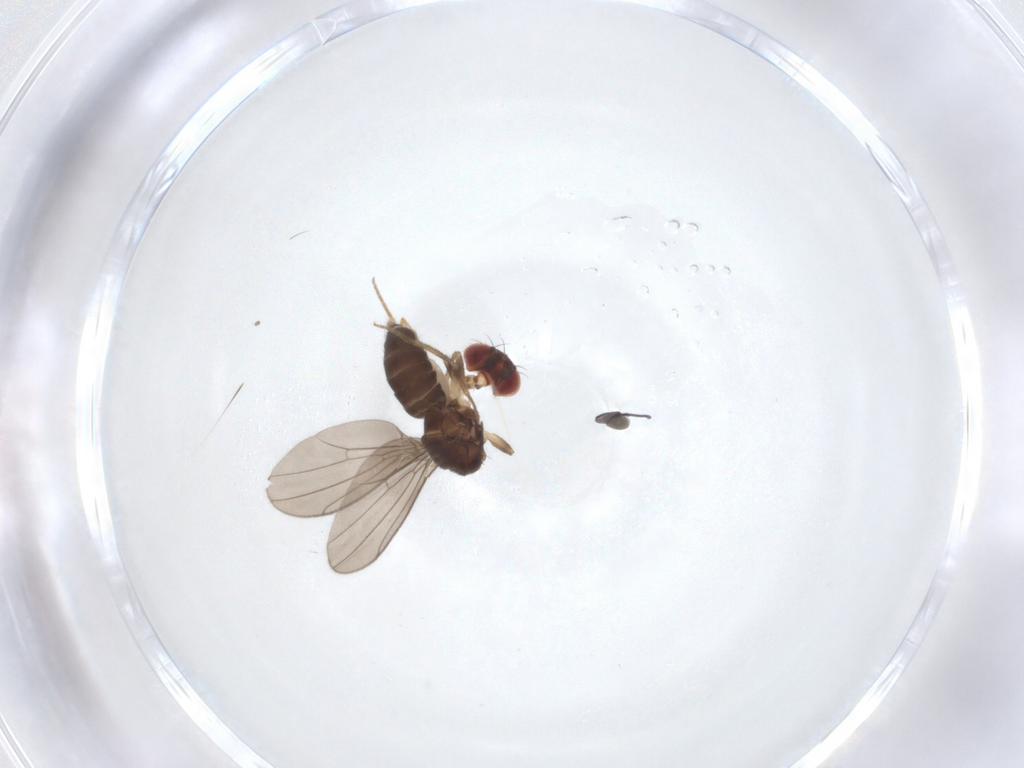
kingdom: Animalia
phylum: Arthropoda
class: Insecta
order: Diptera
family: Drosophilidae
